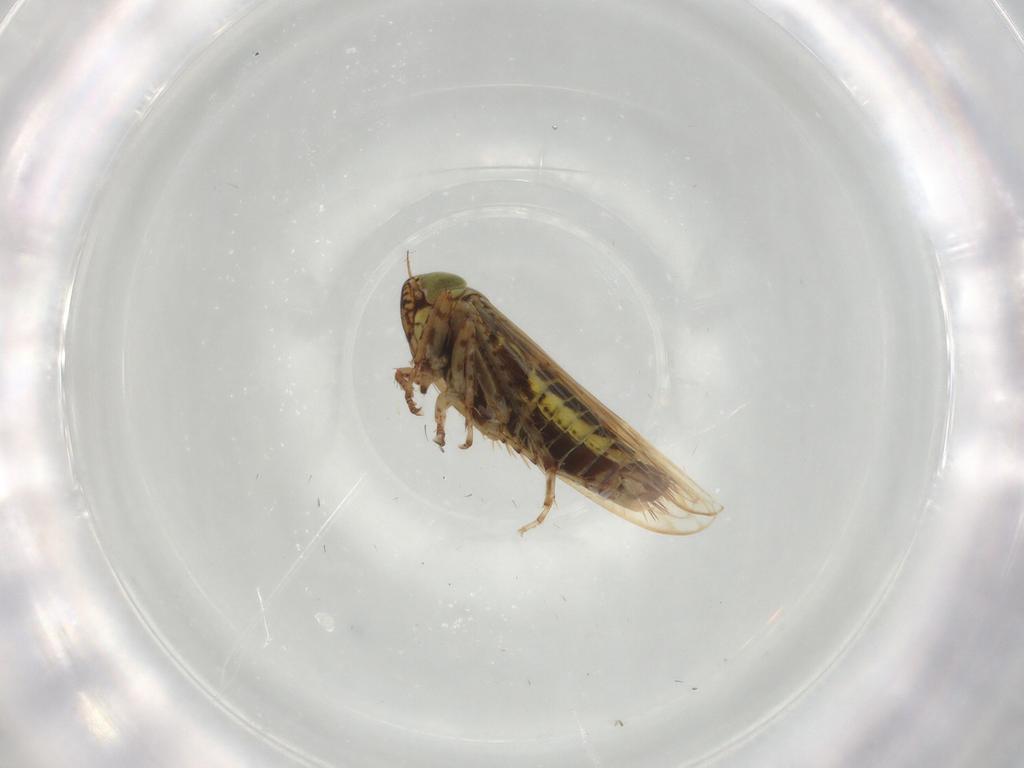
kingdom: Animalia
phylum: Arthropoda
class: Insecta
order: Hemiptera
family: Cicadellidae
